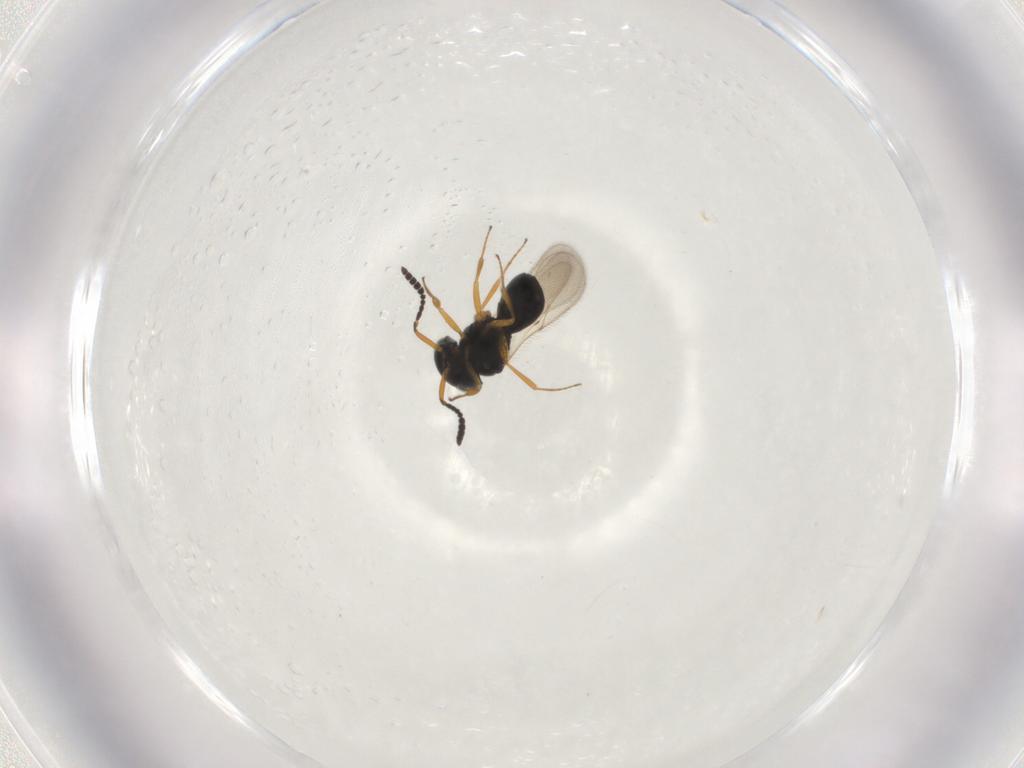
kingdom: Animalia
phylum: Arthropoda
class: Insecta
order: Hymenoptera
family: Scelionidae
